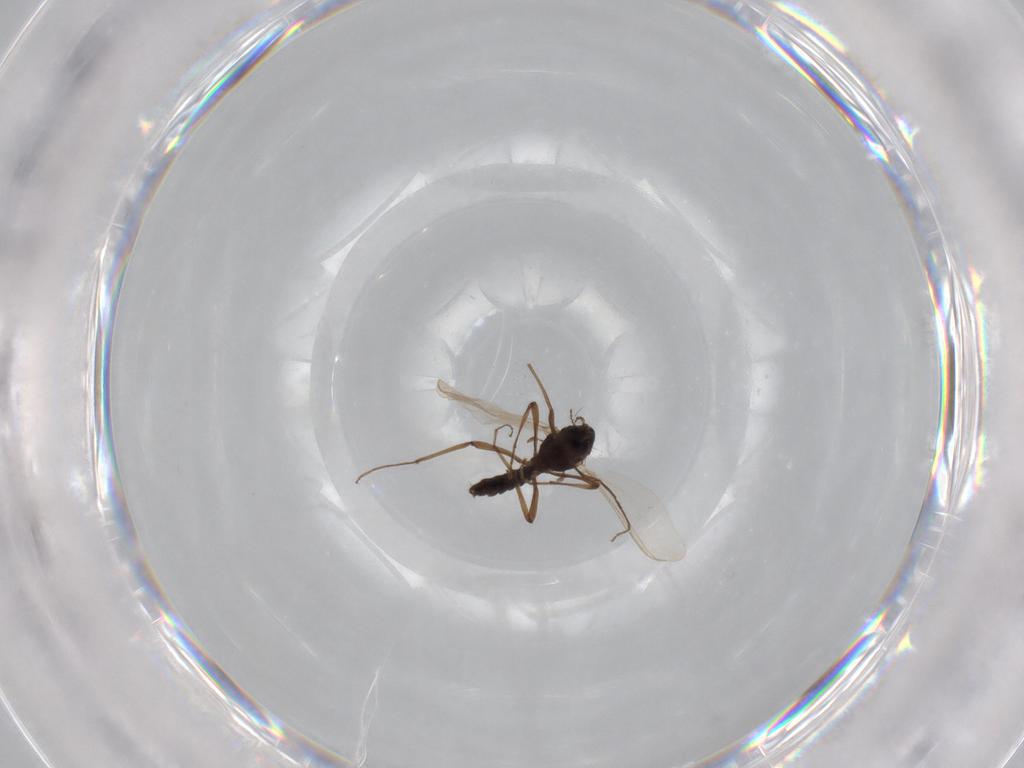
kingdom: Animalia
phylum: Arthropoda
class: Insecta
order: Diptera
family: Chironomidae
